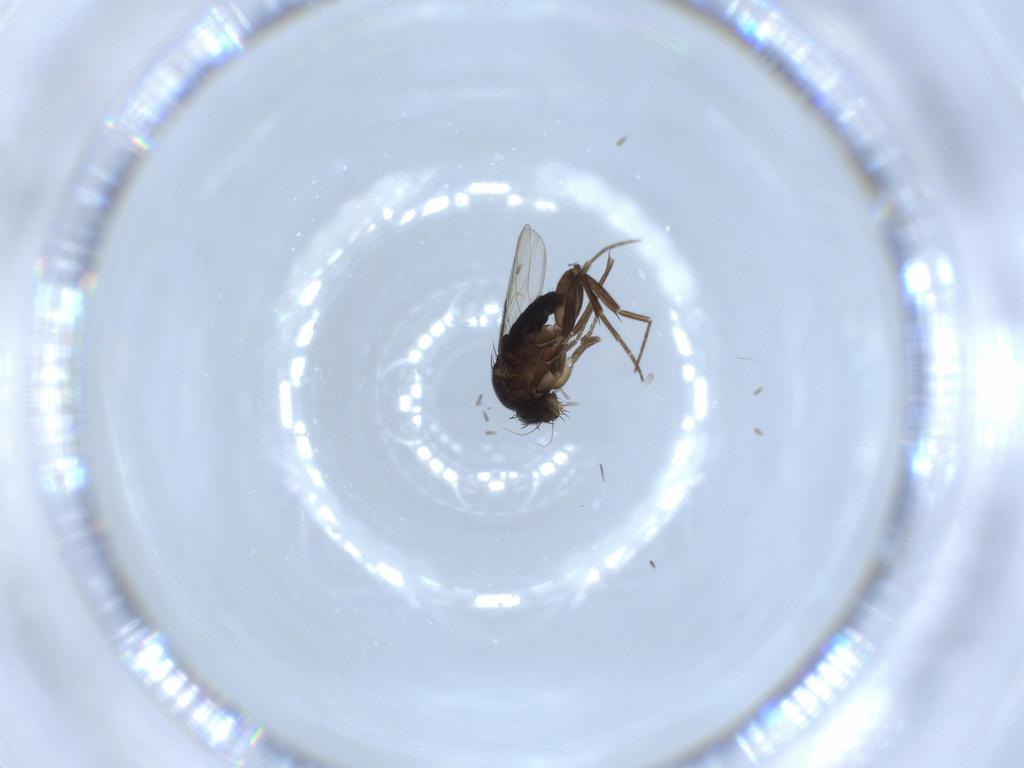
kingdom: Animalia
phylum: Arthropoda
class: Insecta
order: Diptera
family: Phoridae
